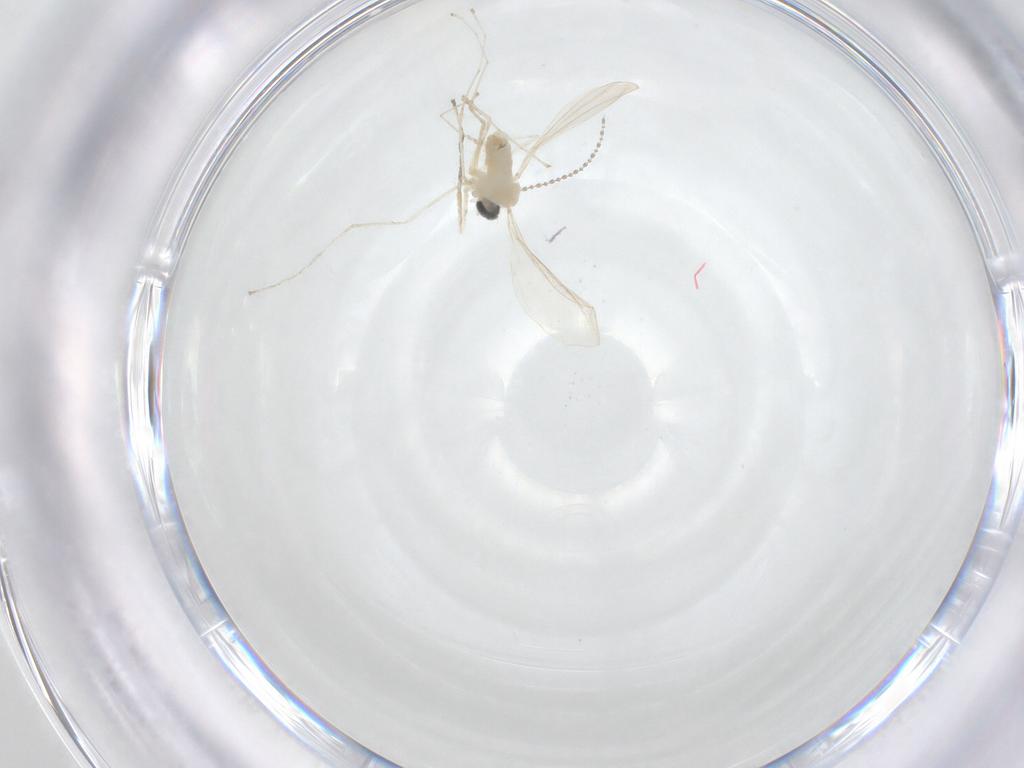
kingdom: Animalia
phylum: Arthropoda
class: Insecta
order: Diptera
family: Cecidomyiidae
